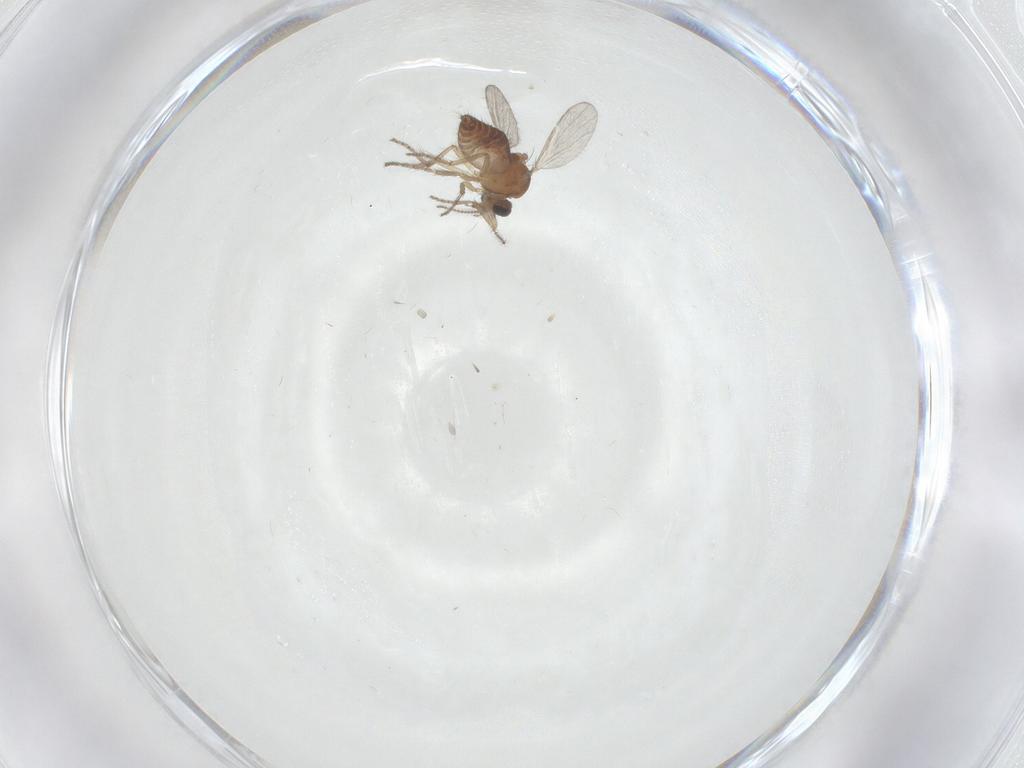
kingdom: Animalia
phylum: Arthropoda
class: Insecta
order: Diptera
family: Ceratopogonidae
